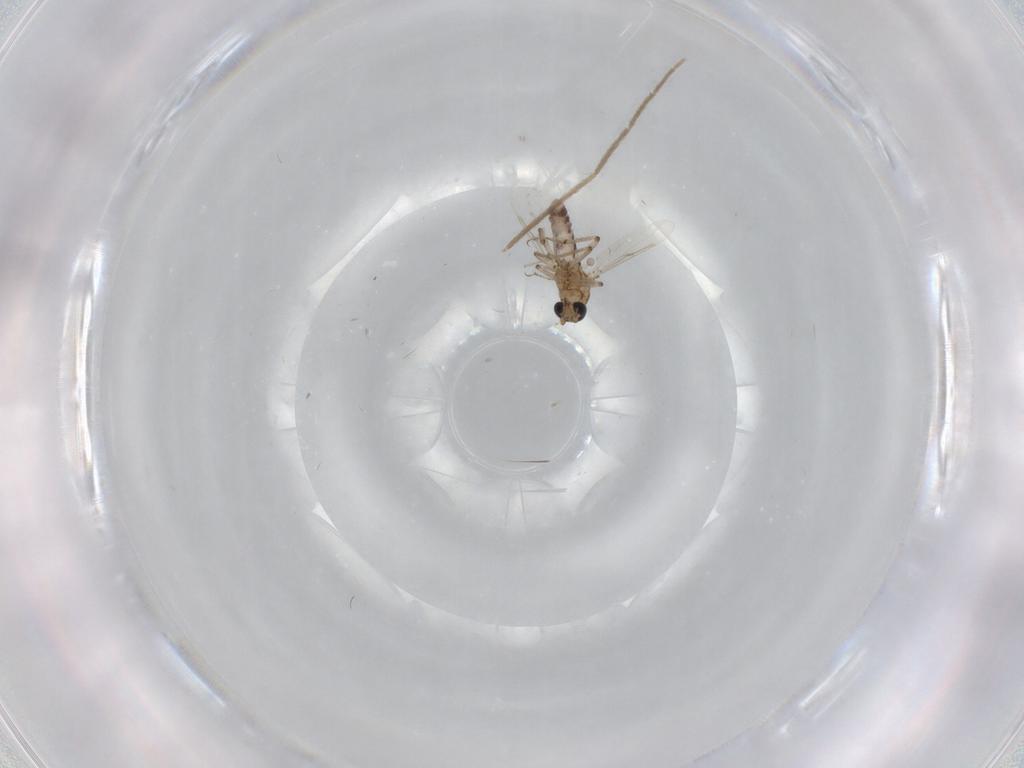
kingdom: Animalia
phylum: Arthropoda
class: Insecta
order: Diptera
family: Ceratopogonidae
